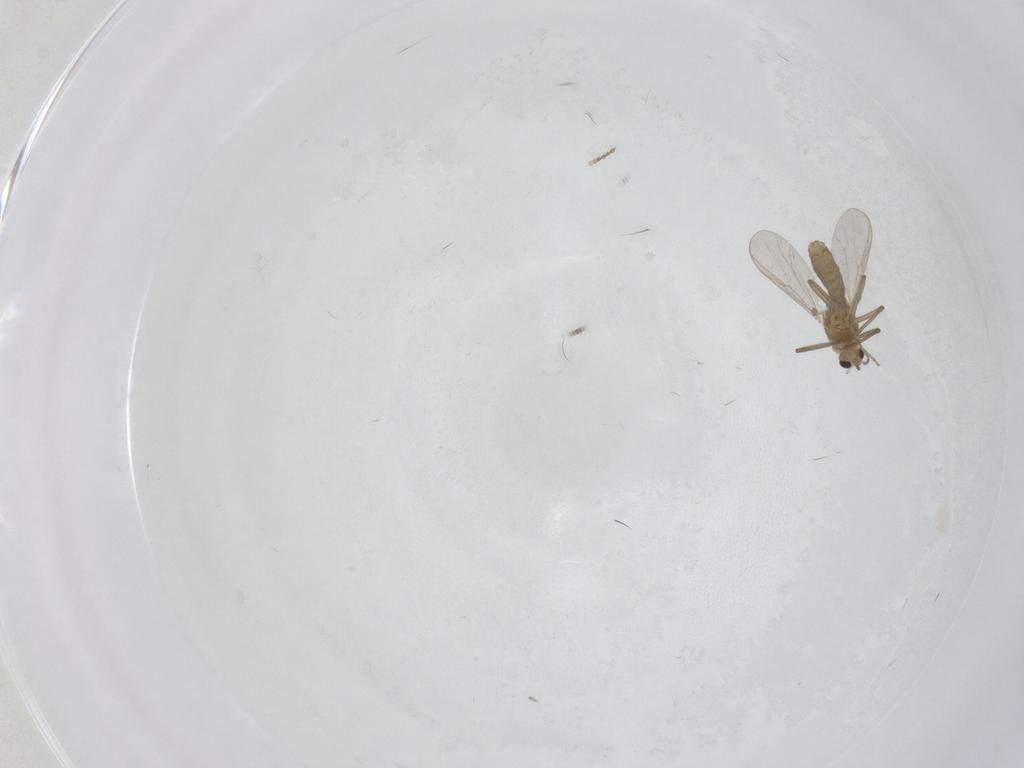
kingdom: Animalia
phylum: Arthropoda
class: Insecta
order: Diptera
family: Chironomidae
